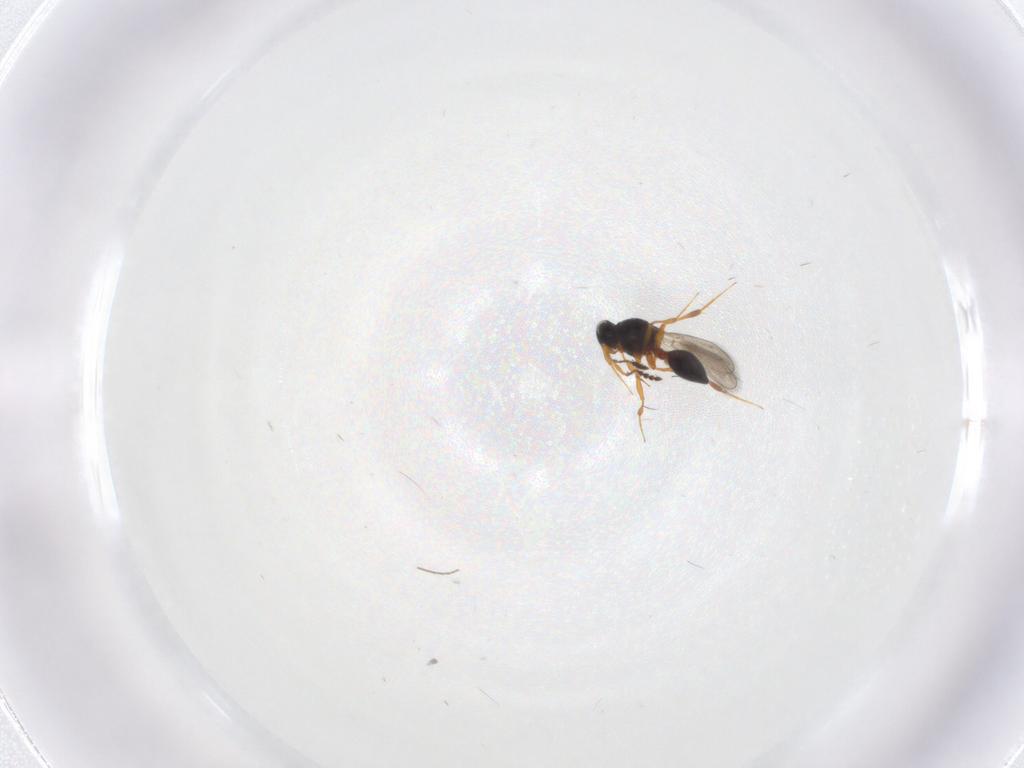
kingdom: Animalia
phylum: Arthropoda
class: Insecta
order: Hymenoptera
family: Platygastridae
